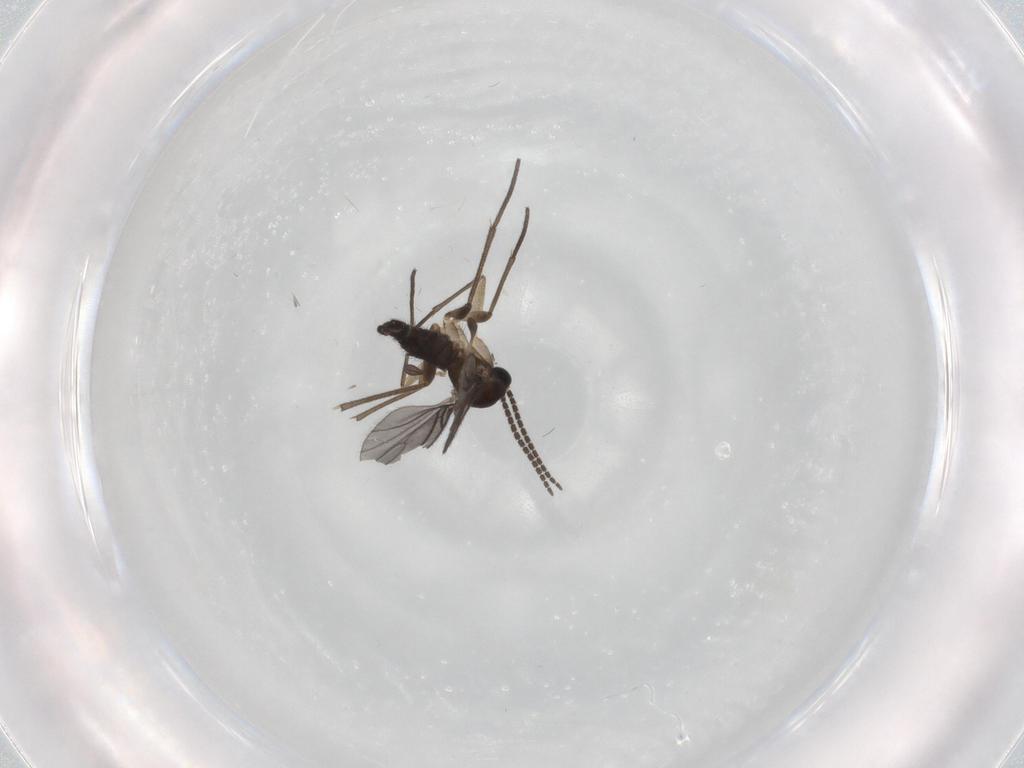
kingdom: Animalia
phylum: Arthropoda
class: Insecta
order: Diptera
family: Sciaridae
